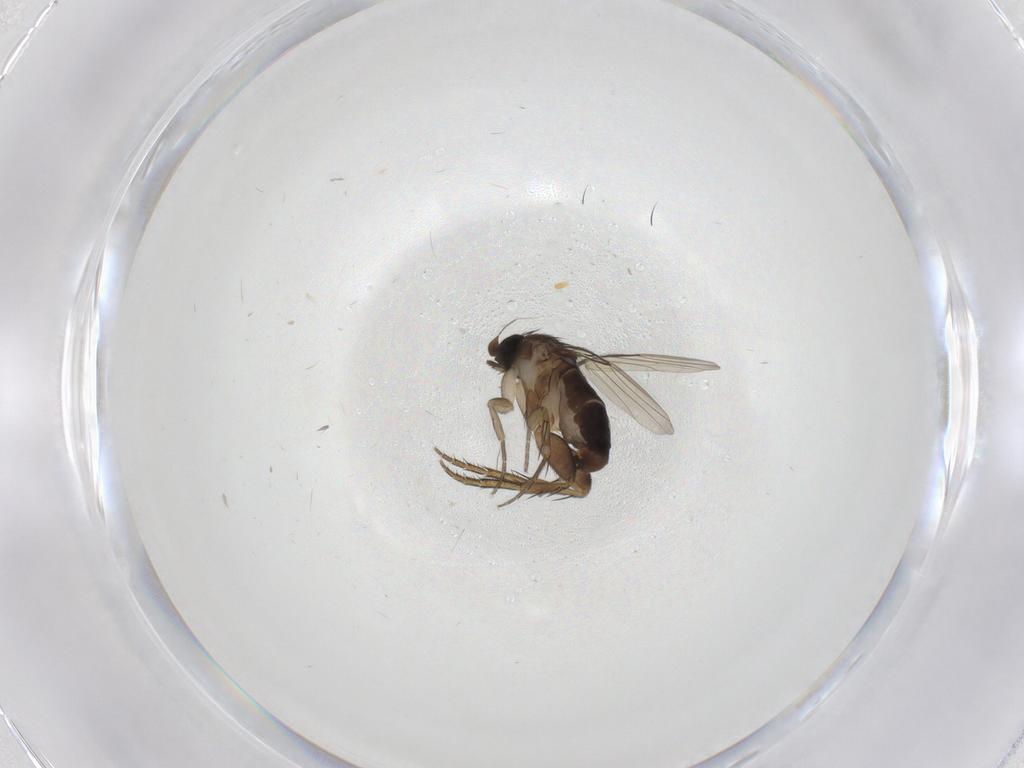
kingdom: Animalia
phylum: Arthropoda
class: Insecta
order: Diptera
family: Phoridae
